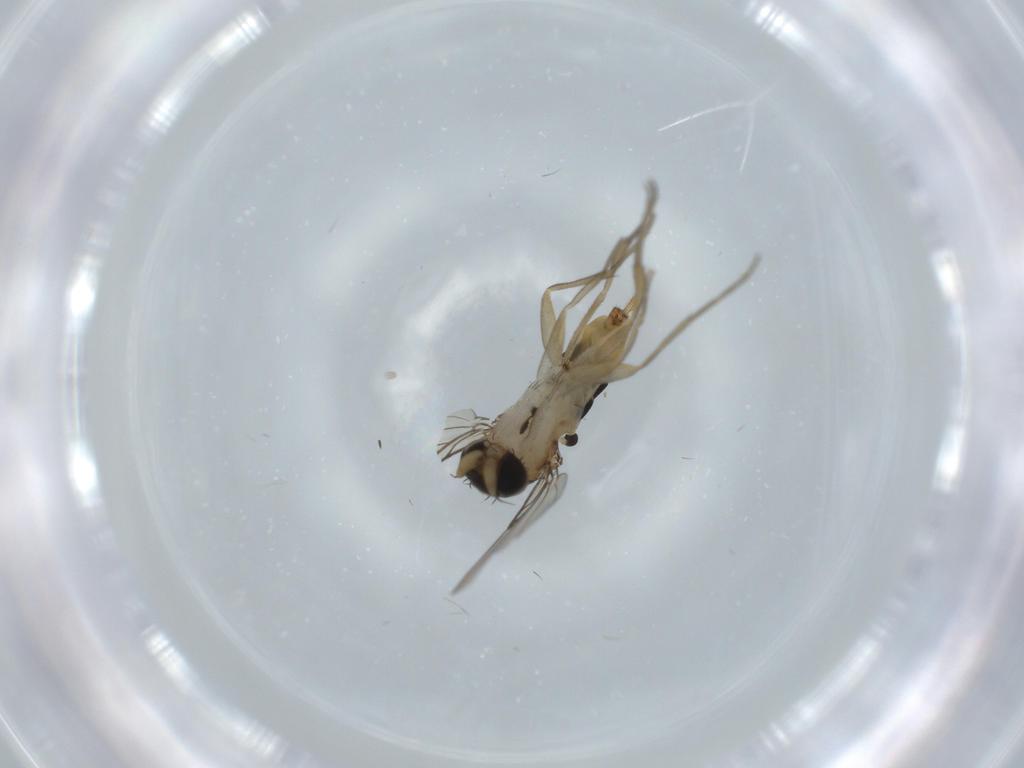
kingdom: Animalia
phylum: Arthropoda
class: Insecta
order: Diptera
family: Phoridae
